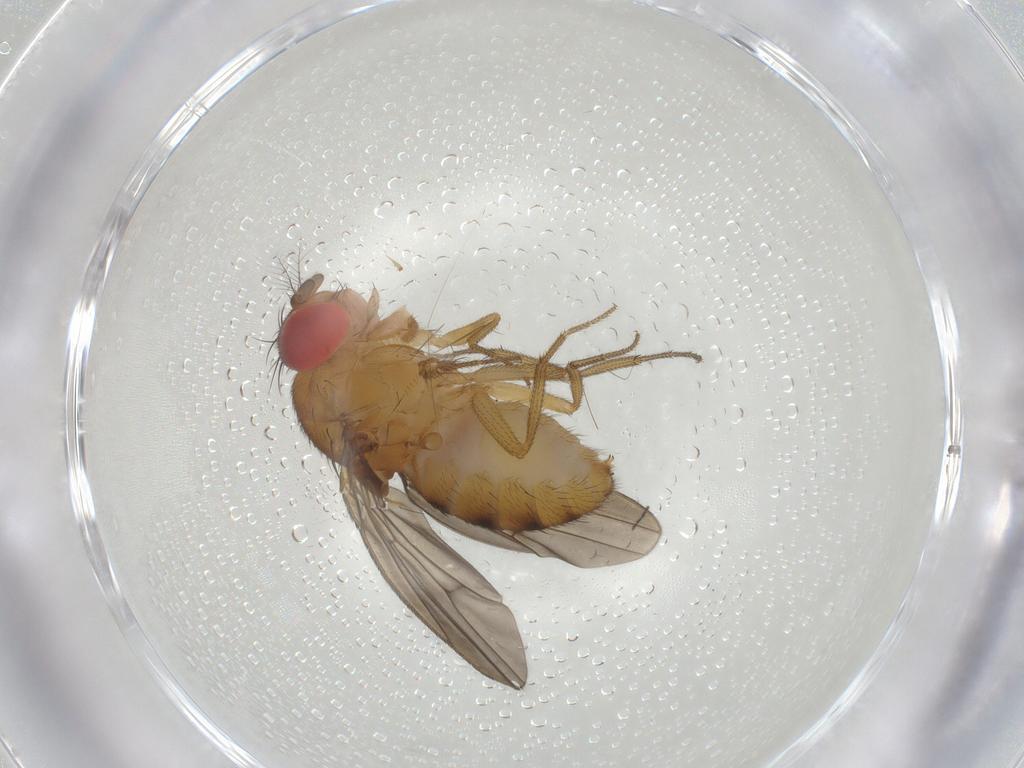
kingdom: Animalia
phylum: Arthropoda
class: Insecta
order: Diptera
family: Drosophilidae
